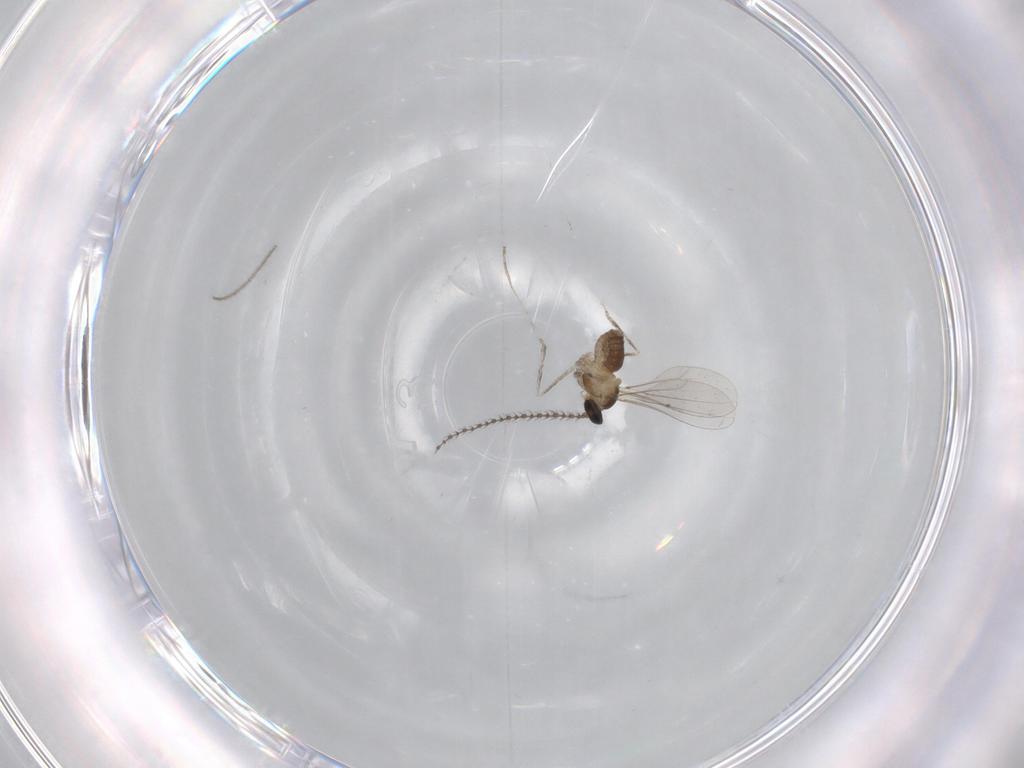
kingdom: Animalia
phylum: Arthropoda
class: Insecta
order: Diptera
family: Cecidomyiidae
